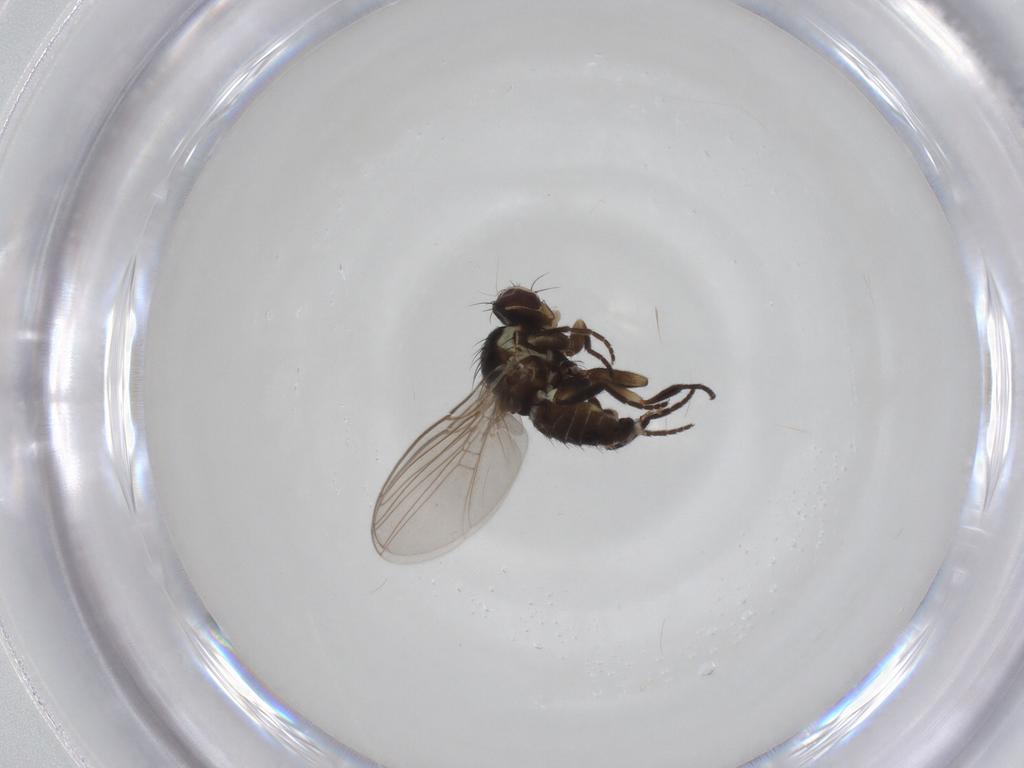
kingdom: Animalia
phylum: Arthropoda
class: Insecta
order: Diptera
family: Agromyzidae
